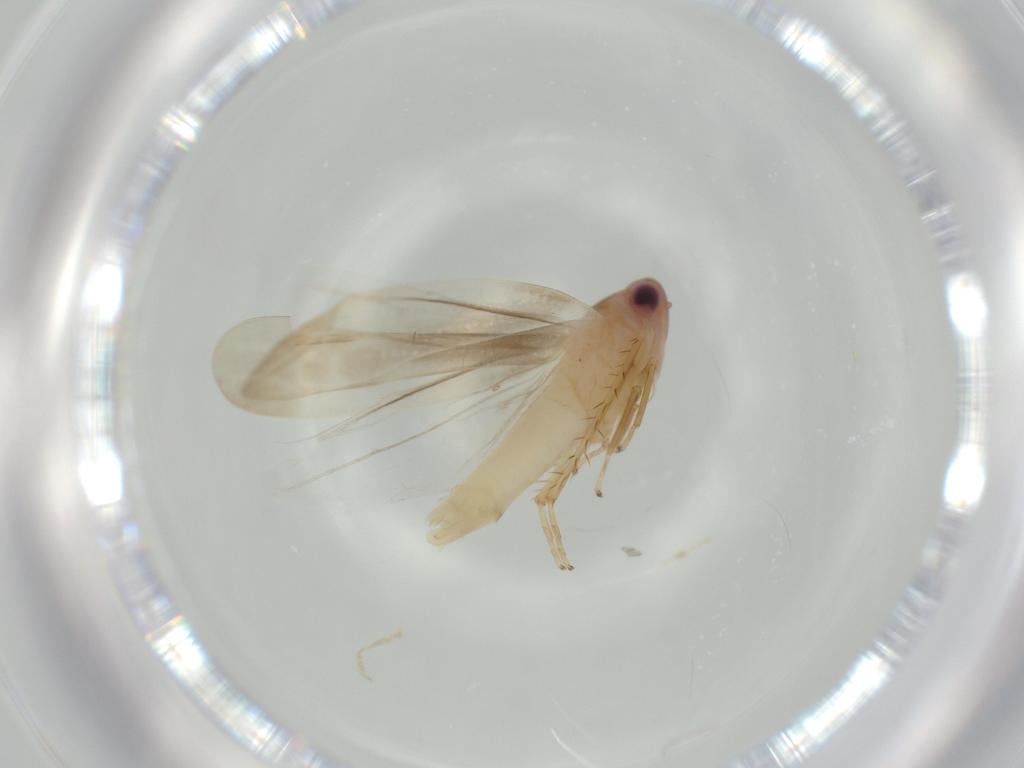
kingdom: Animalia
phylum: Arthropoda
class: Insecta
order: Hemiptera
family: Cicadellidae
